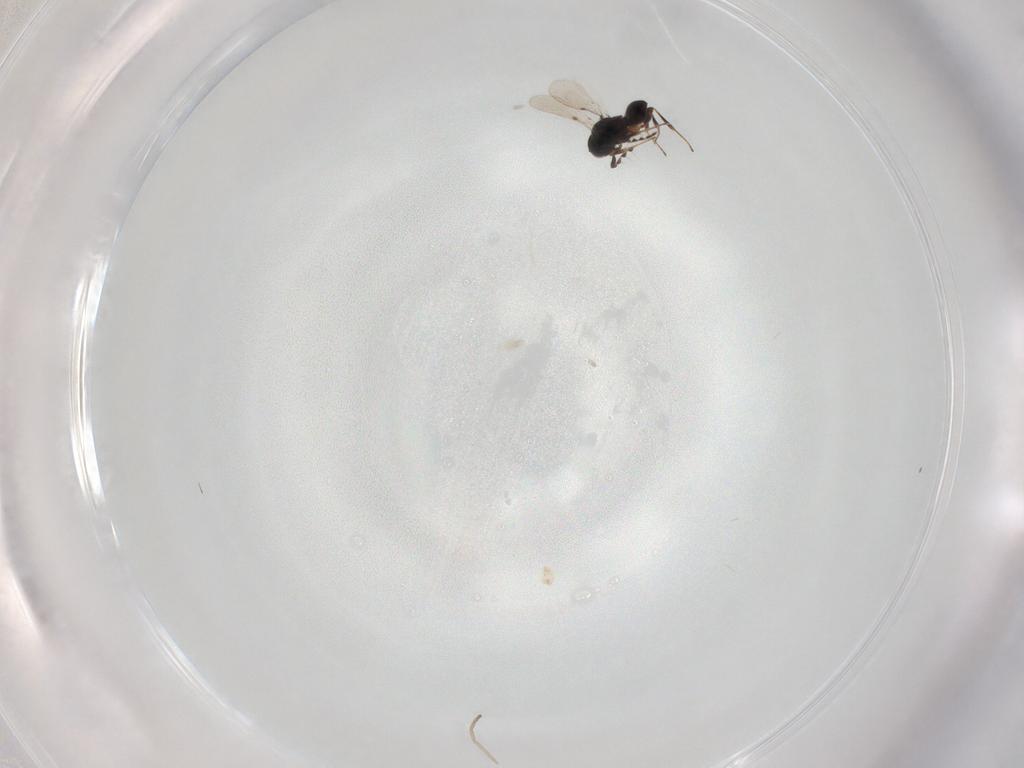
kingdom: Animalia
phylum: Arthropoda
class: Insecta
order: Hymenoptera
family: Platygastridae
